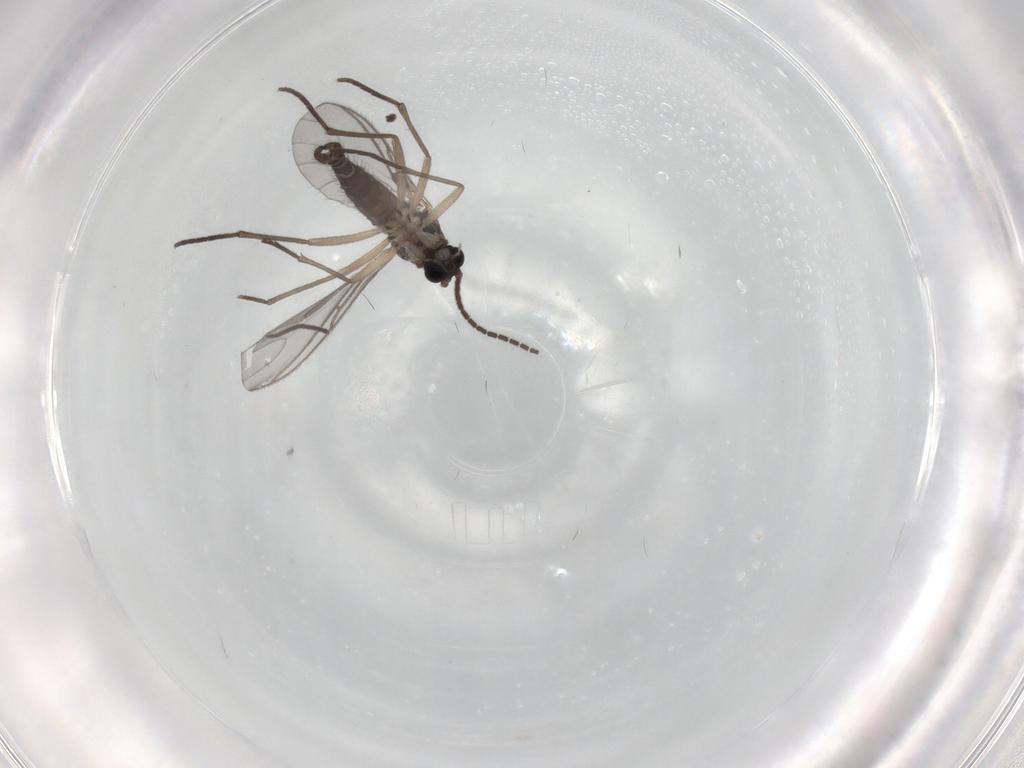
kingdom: Animalia
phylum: Arthropoda
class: Insecta
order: Diptera
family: Sciaridae
